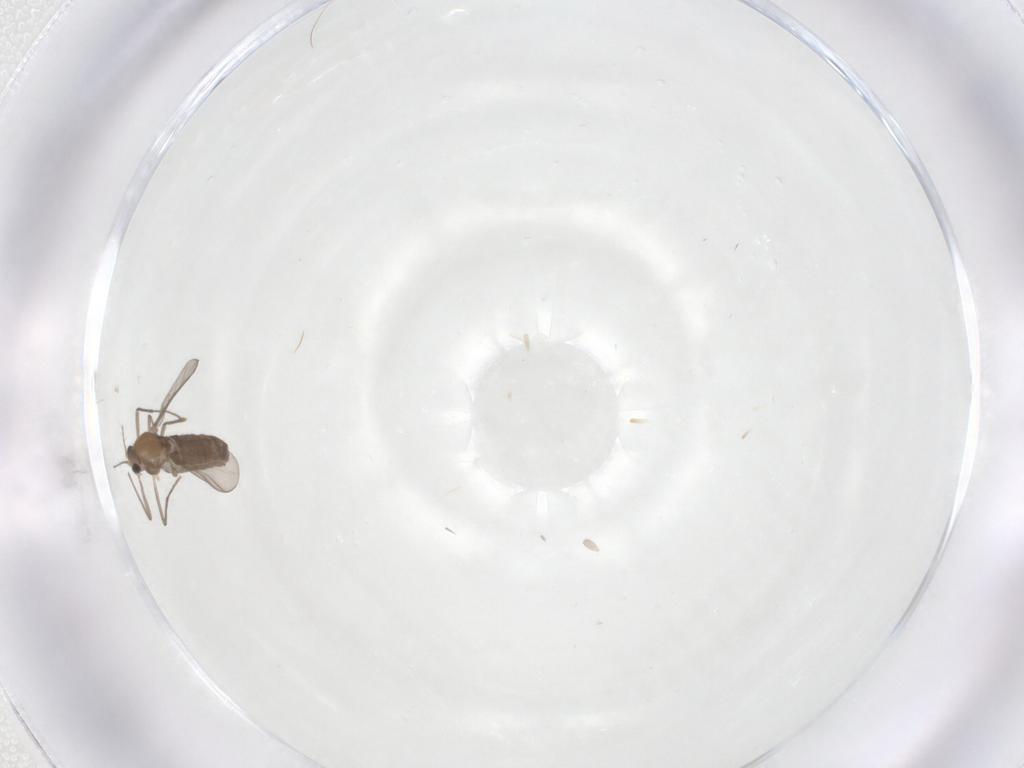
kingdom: Animalia
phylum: Arthropoda
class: Insecta
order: Diptera
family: Chironomidae
